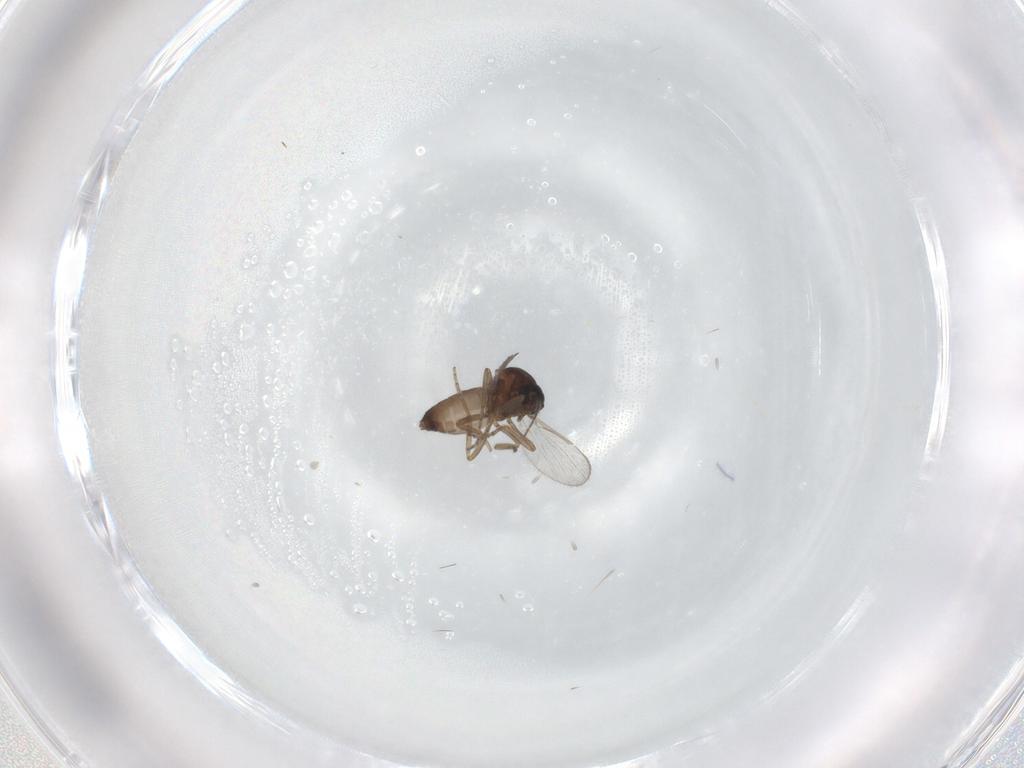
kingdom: Animalia
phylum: Arthropoda
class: Insecta
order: Diptera
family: Ceratopogonidae
